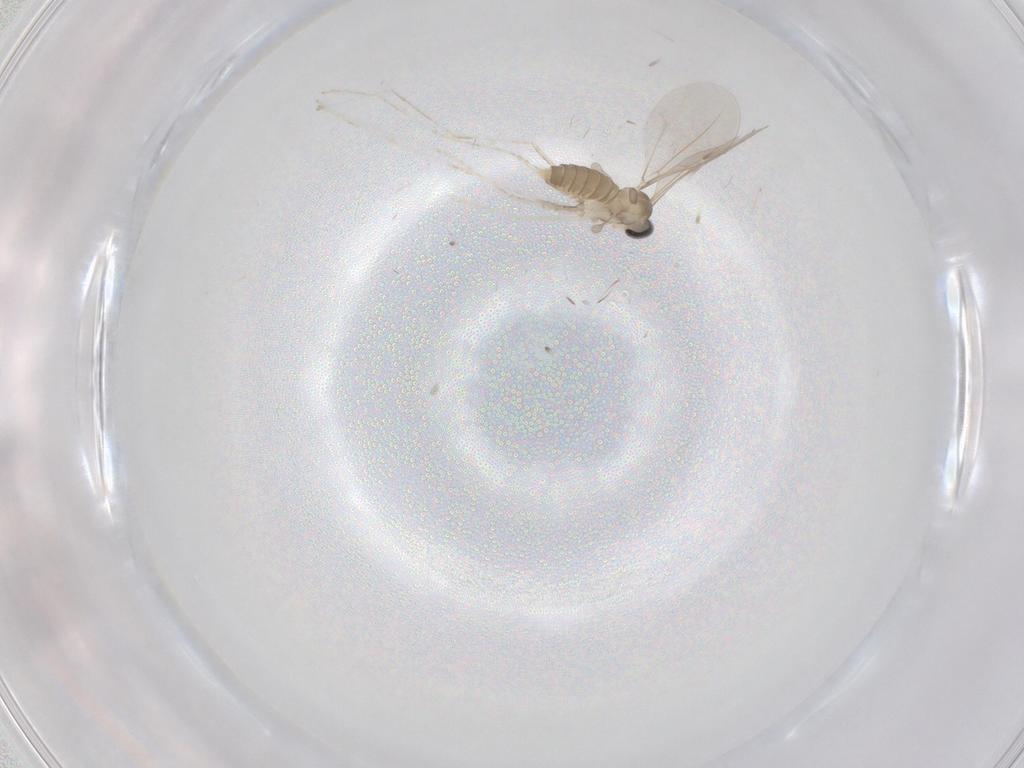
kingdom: Animalia
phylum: Arthropoda
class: Insecta
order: Diptera
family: Cecidomyiidae
